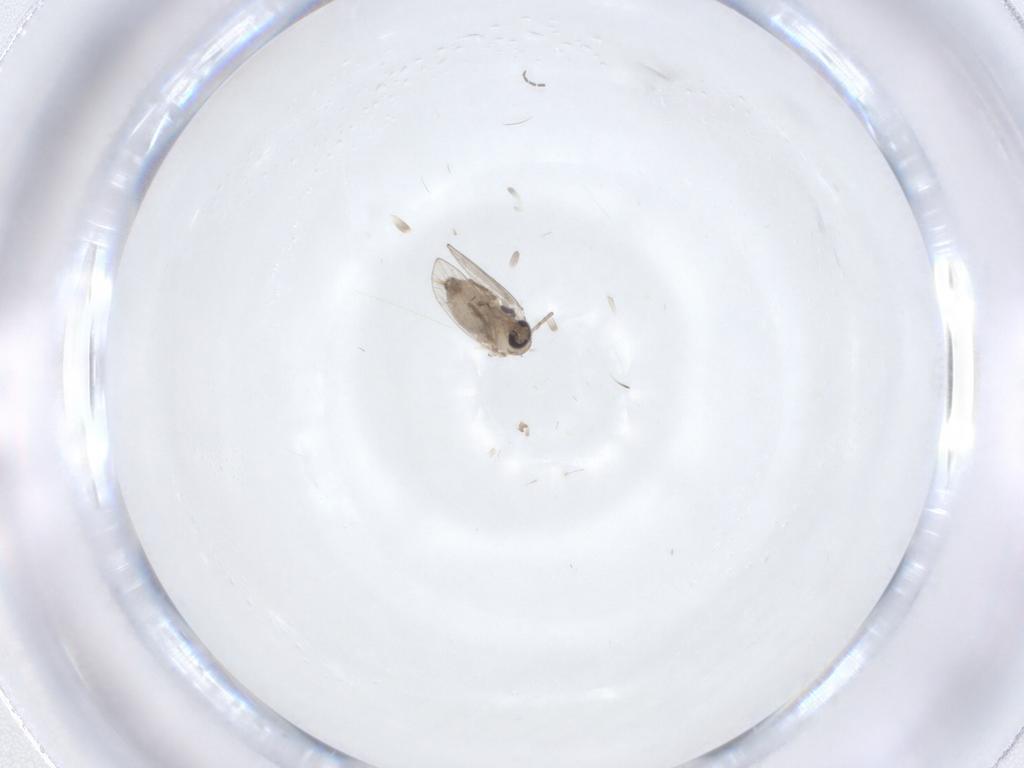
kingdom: Animalia
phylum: Arthropoda
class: Insecta
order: Diptera
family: Psychodidae
